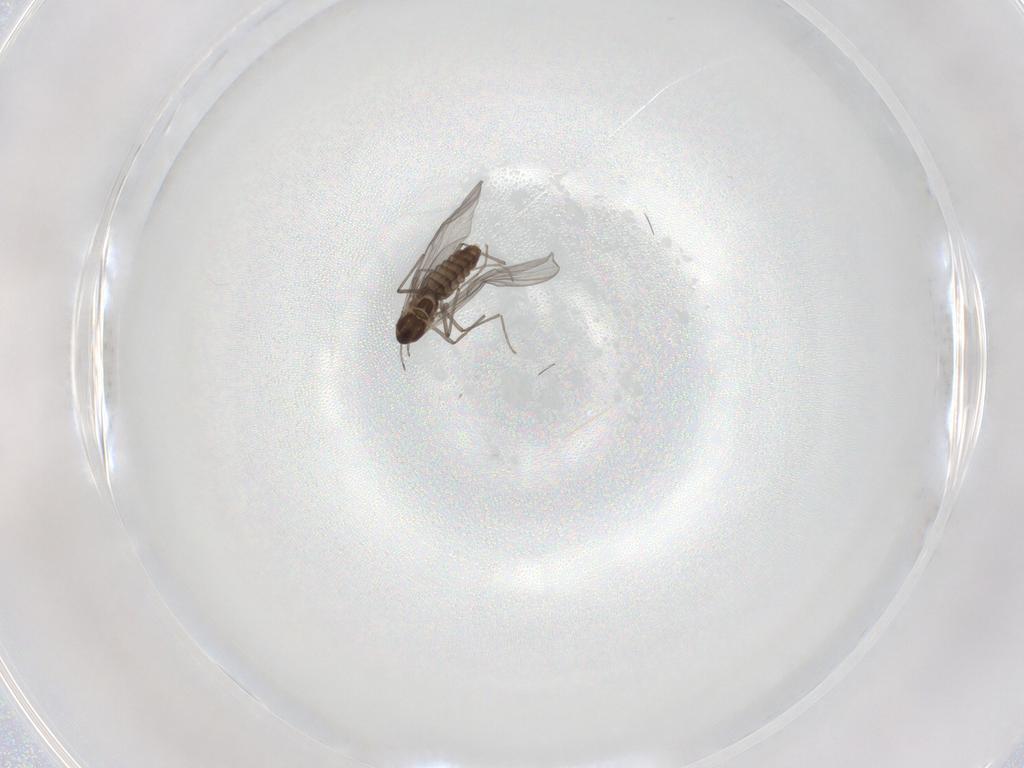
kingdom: Animalia
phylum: Arthropoda
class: Insecta
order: Diptera
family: Chironomidae
